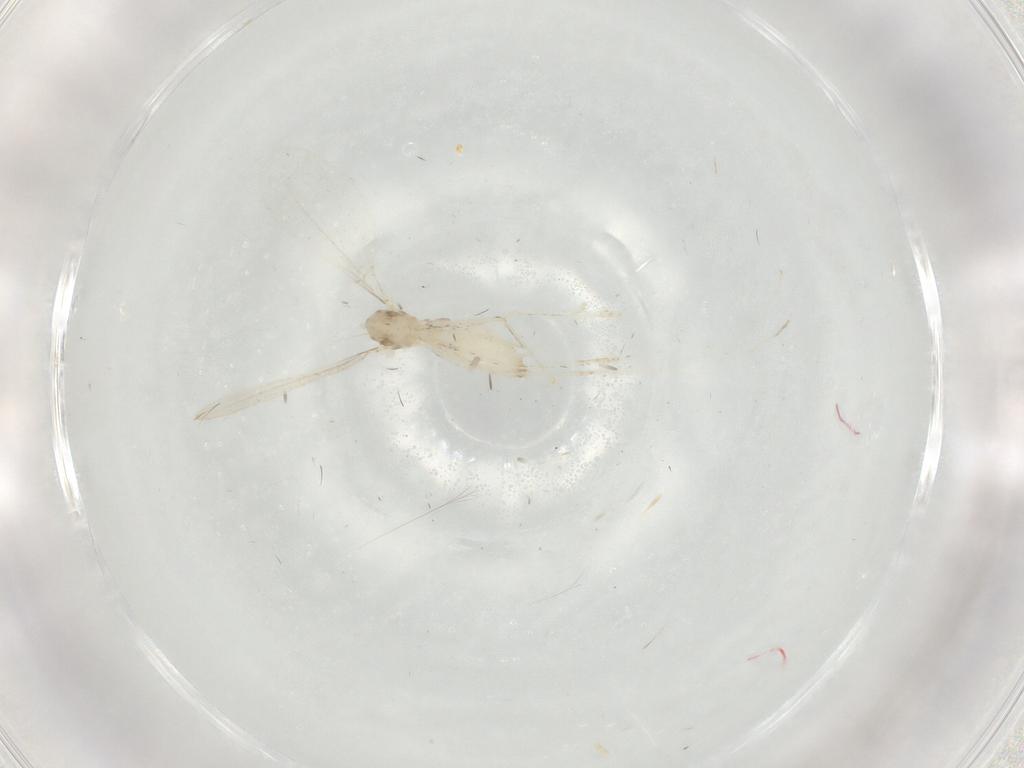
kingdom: Animalia
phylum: Arthropoda
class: Insecta
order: Diptera
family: Cecidomyiidae
